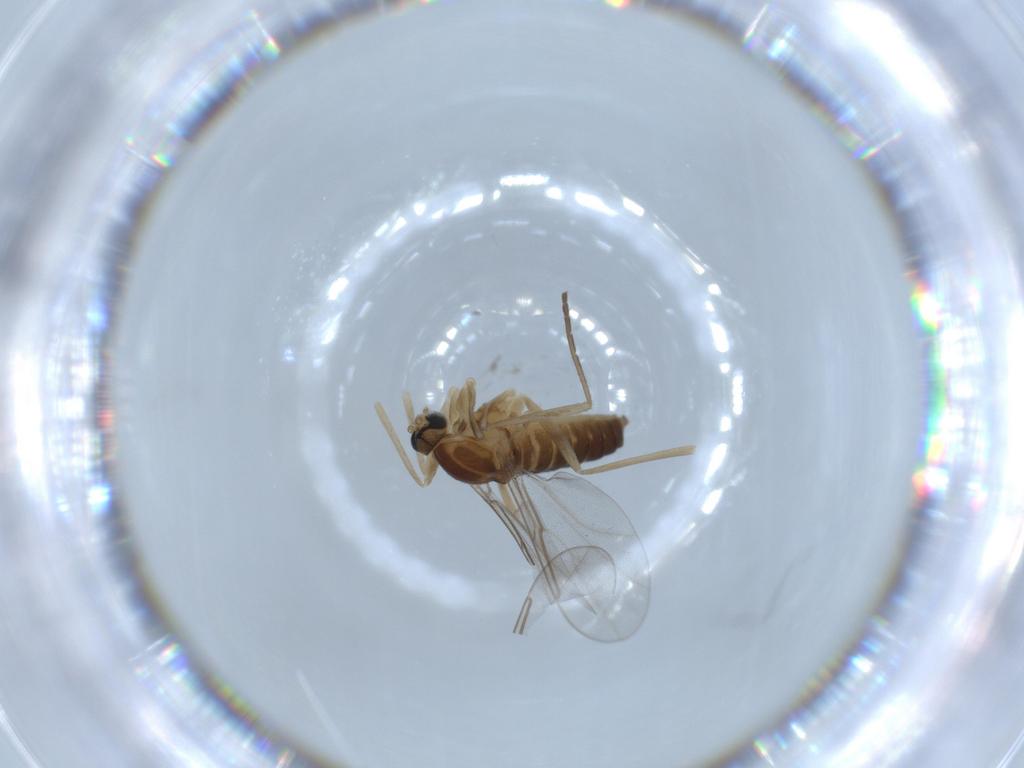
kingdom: Animalia
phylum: Arthropoda
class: Insecta
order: Diptera
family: Cecidomyiidae
